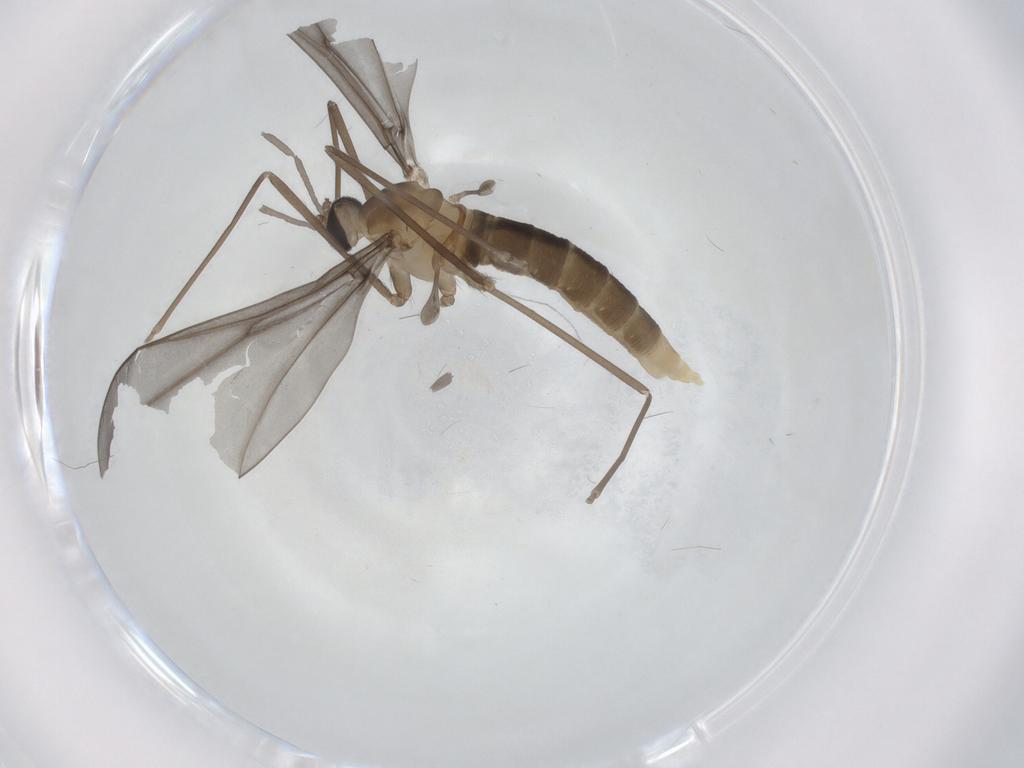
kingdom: Animalia
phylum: Arthropoda
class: Insecta
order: Diptera
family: Cecidomyiidae
